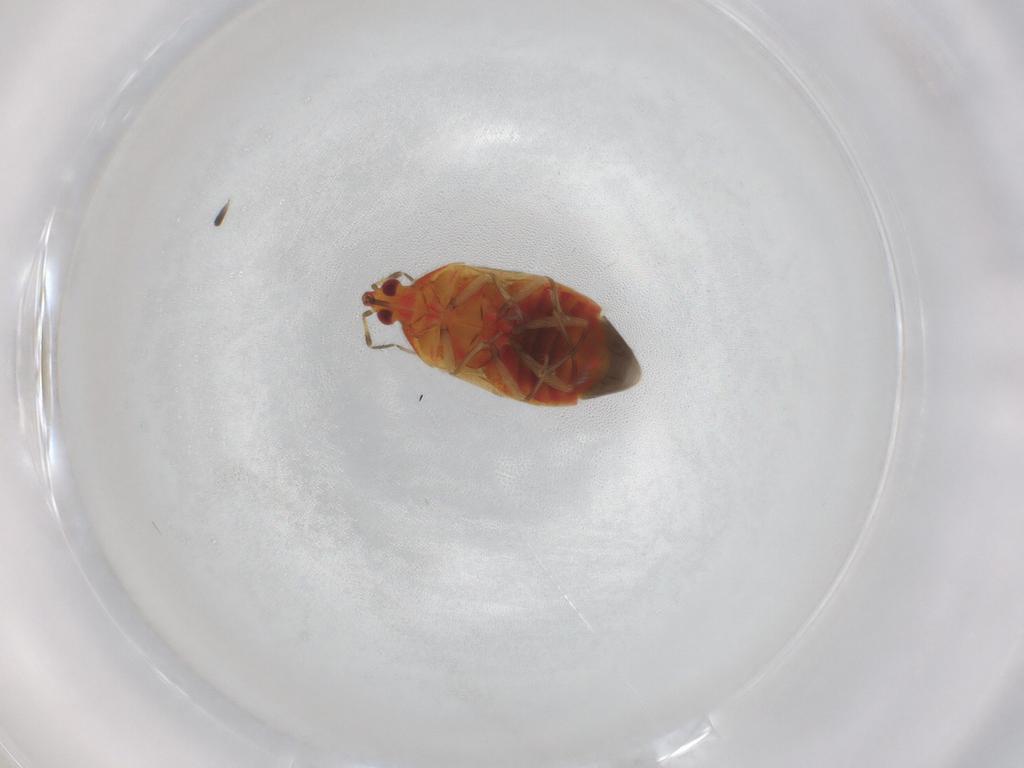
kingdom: Animalia
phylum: Arthropoda
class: Insecta
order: Hemiptera
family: Anthocoridae
